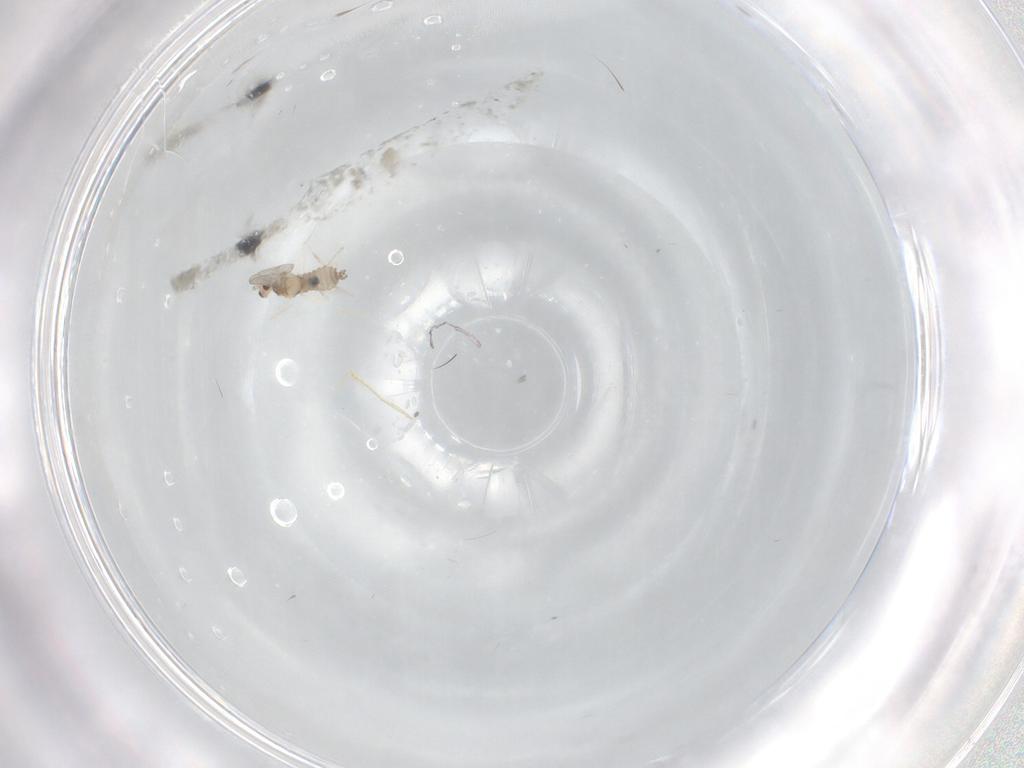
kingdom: Animalia
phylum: Arthropoda
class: Insecta
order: Diptera
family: Cecidomyiidae
